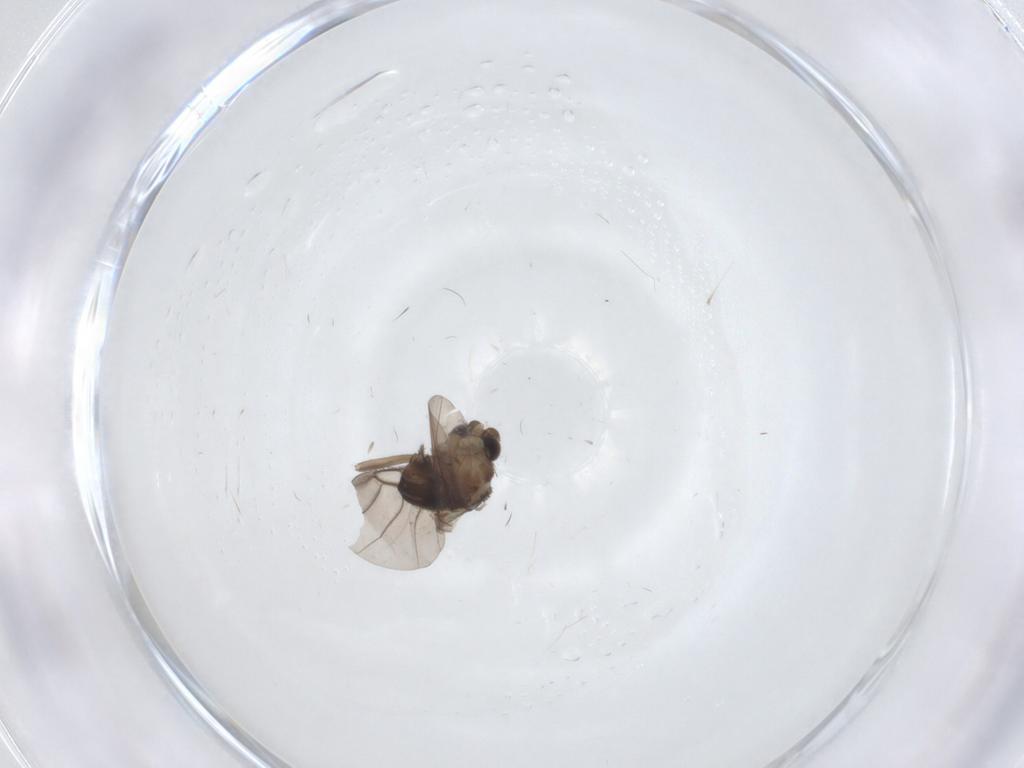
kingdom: Animalia
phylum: Arthropoda
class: Insecta
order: Diptera
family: Phoridae
